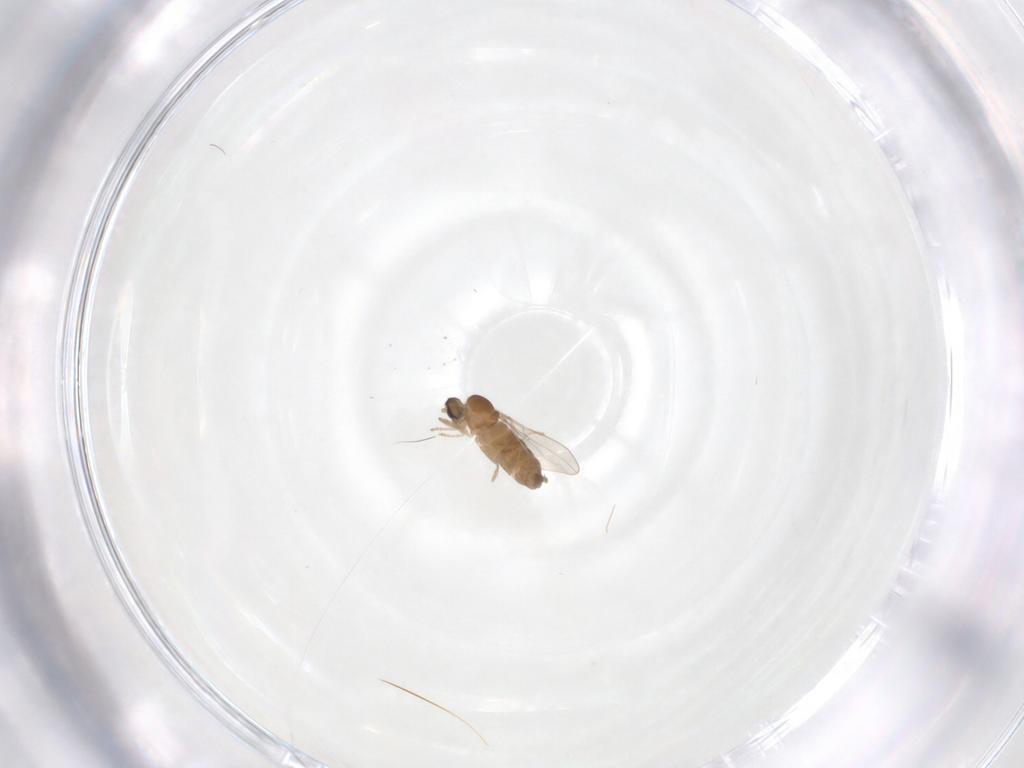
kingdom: Animalia
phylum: Arthropoda
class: Insecta
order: Diptera
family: Cecidomyiidae
